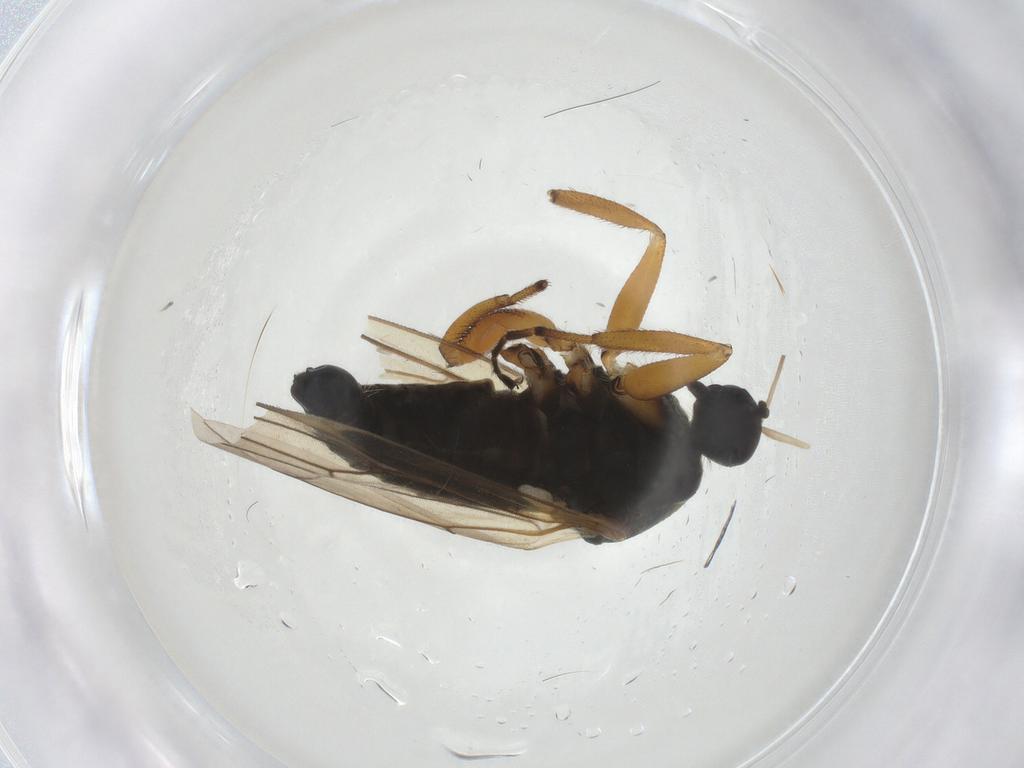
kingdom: Animalia
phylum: Arthropoda
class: Insecta
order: Diptera
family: Hybotidae
